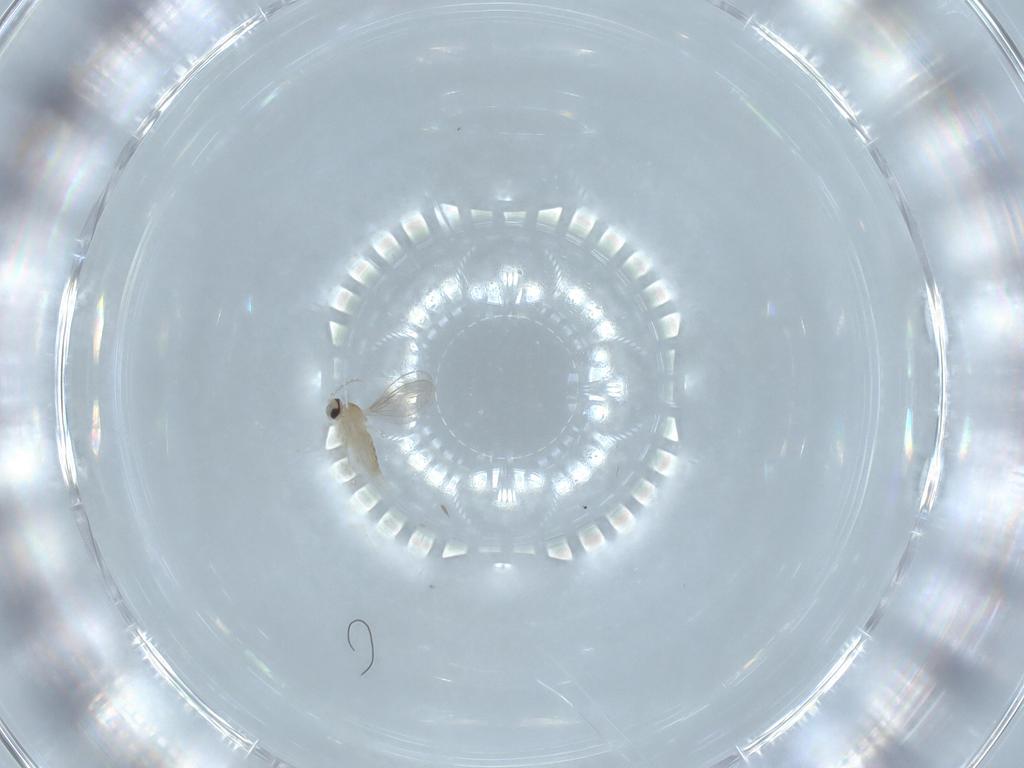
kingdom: Animalia
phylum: Arthropoda
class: Insecta
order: Diptera
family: Cecidomyiidae
